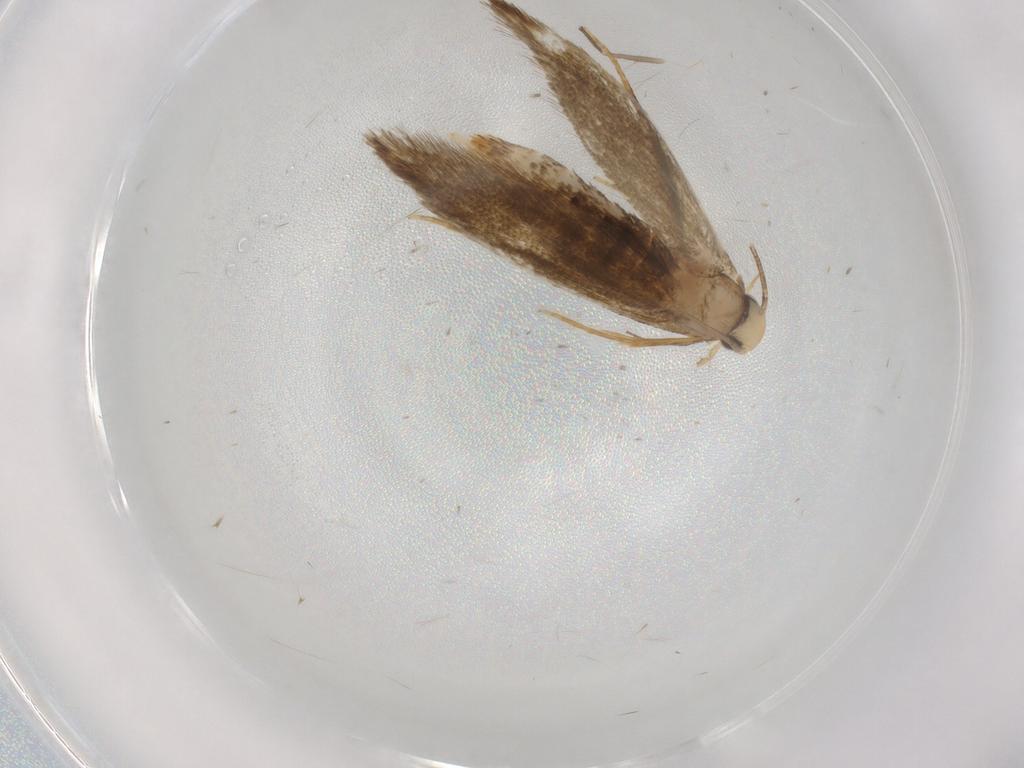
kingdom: Animalia
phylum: Arthropoda
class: Insecta
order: Lepidoptera
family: Tineidae
